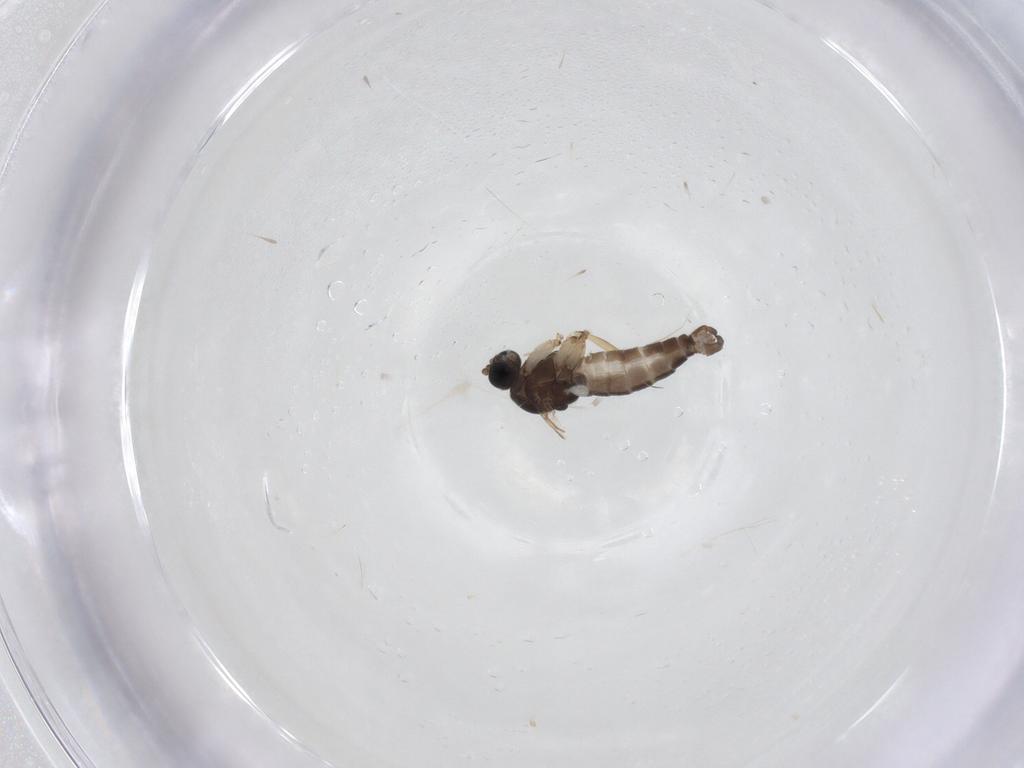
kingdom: Animalia
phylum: Arthropoda
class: Insecta
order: Diptera
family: Sciaridae
